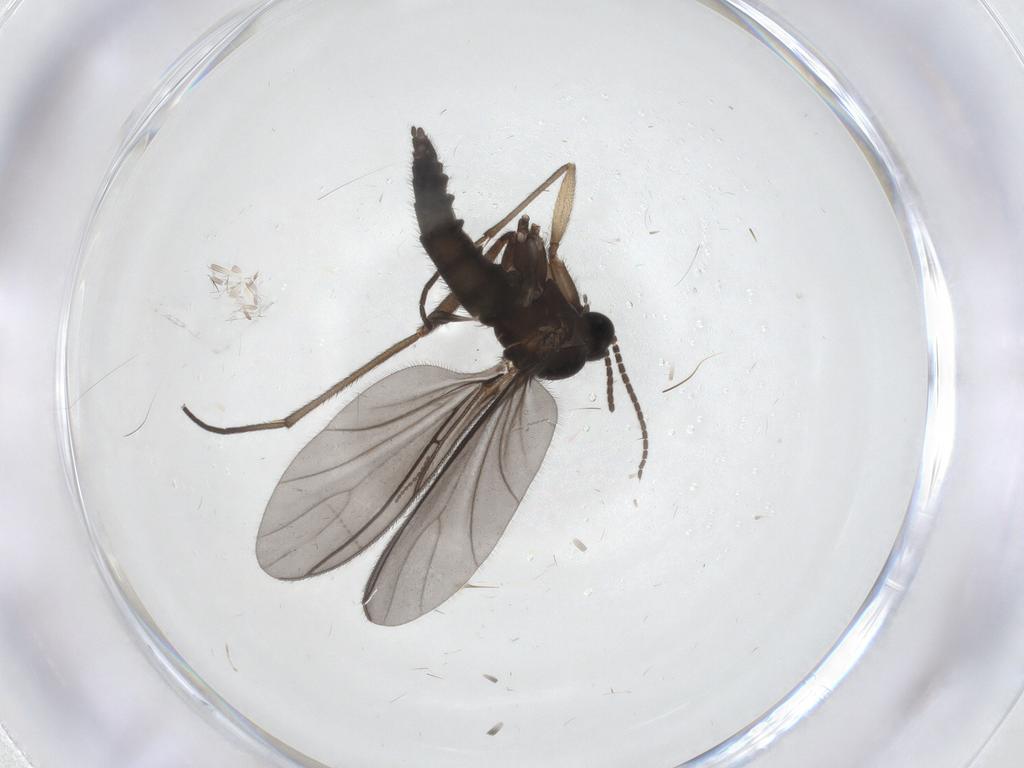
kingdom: Animalia
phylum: Arthropoda
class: Insecta
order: Diptera
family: Sciaridae
